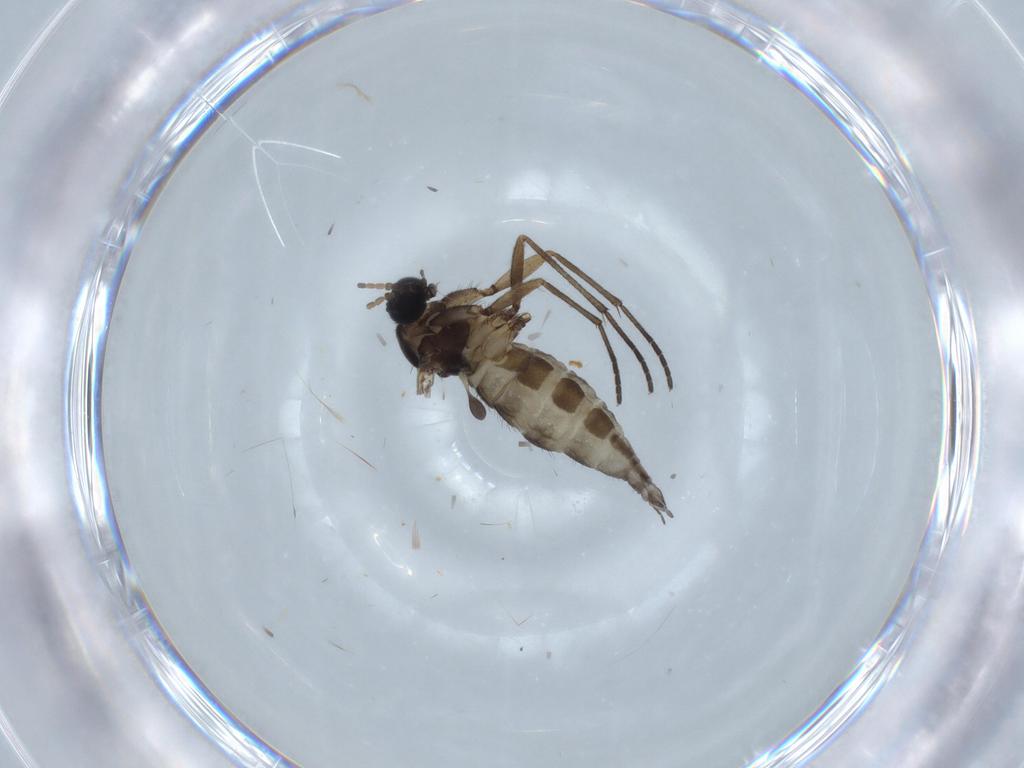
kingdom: Animalia
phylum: Arthropoda
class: Insecta
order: Diptera
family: Sciaridae
